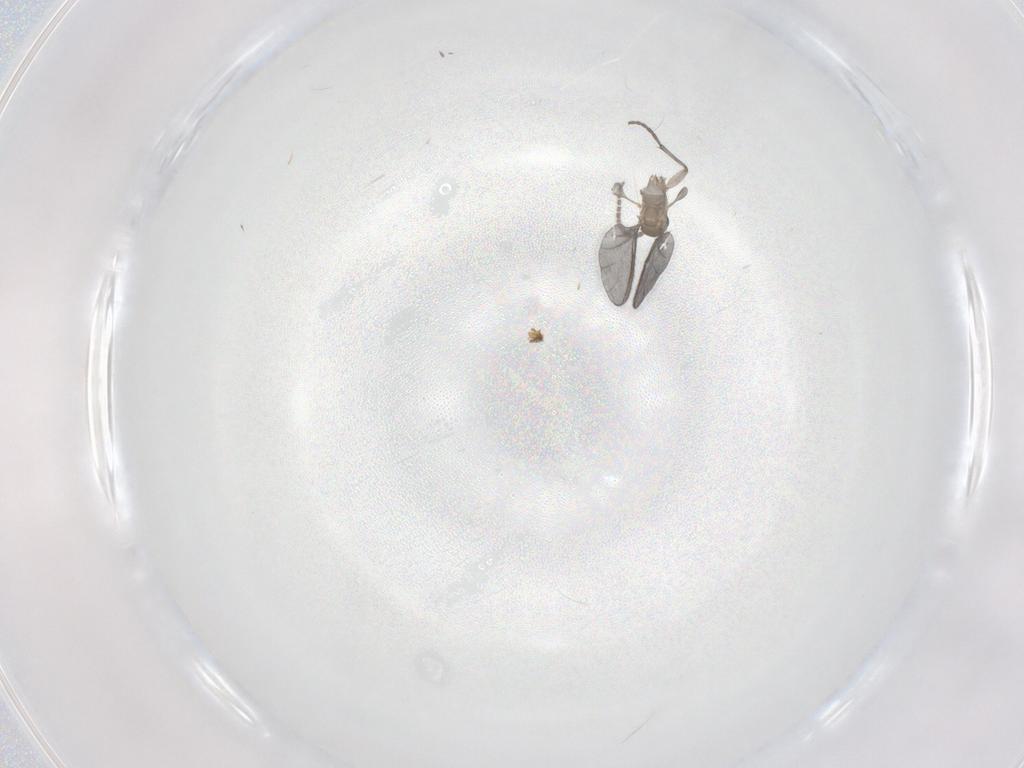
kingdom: Animalia
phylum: Arthropoda
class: Insecta
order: Diptera
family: Chironomidae
